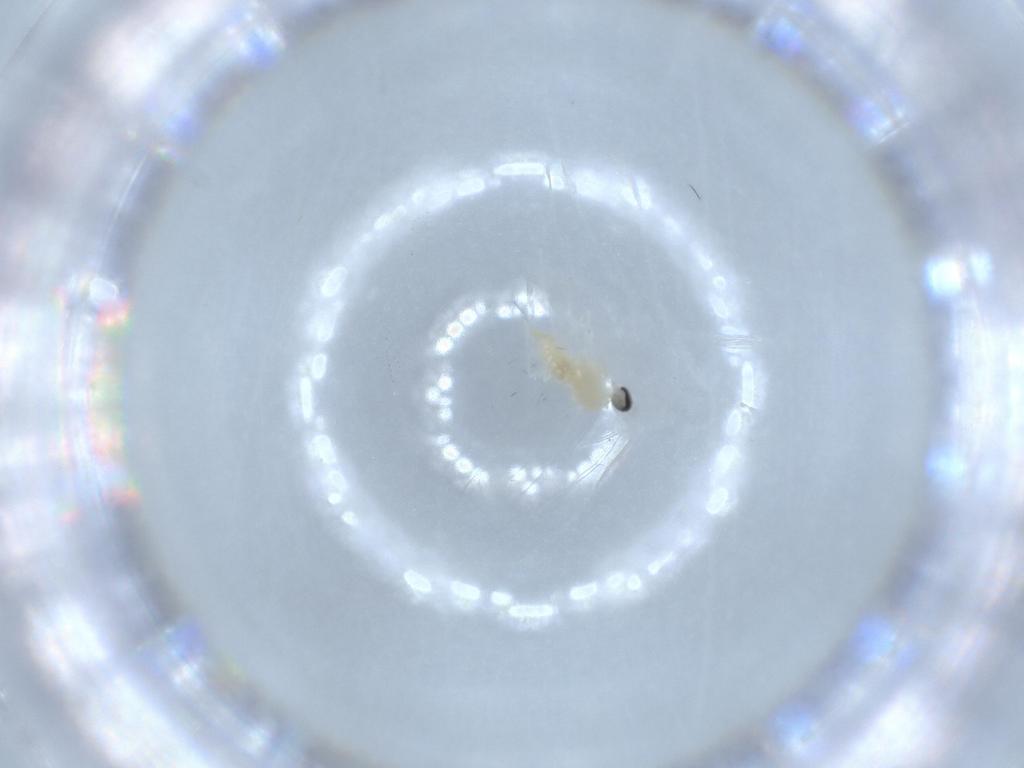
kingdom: Animalia
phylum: Arthropoda
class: Insecta
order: Diptera
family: Cecidomyiidae
